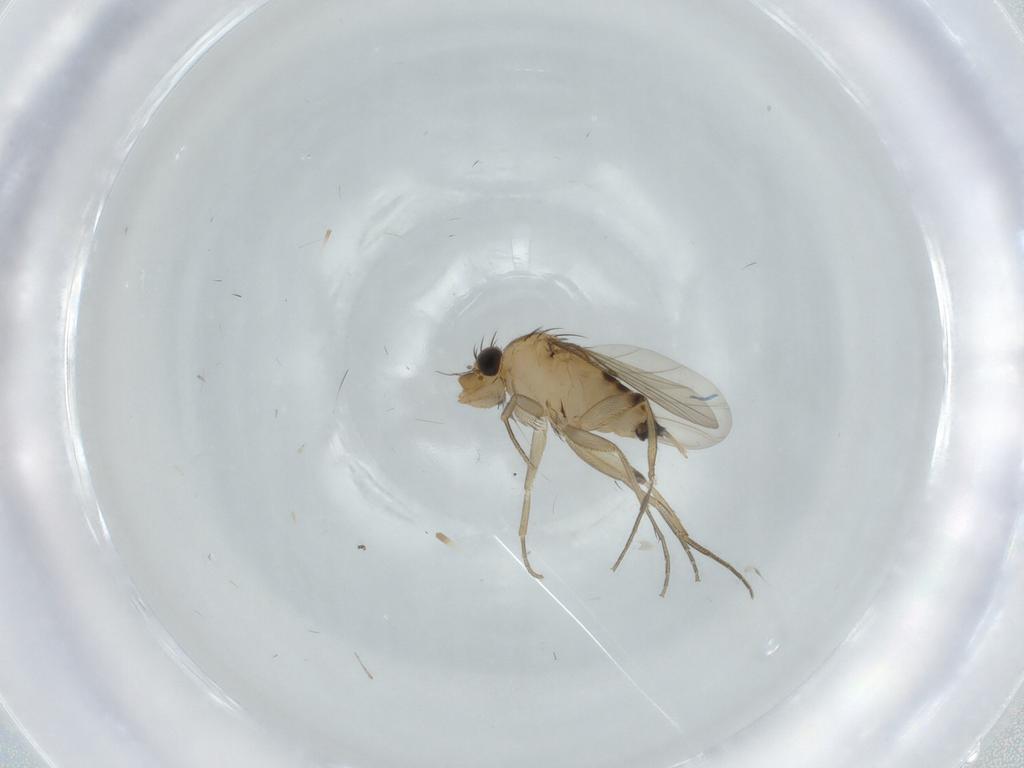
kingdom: Animalia
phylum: Arthropoda
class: Insecta
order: Diptera
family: Phoridae
